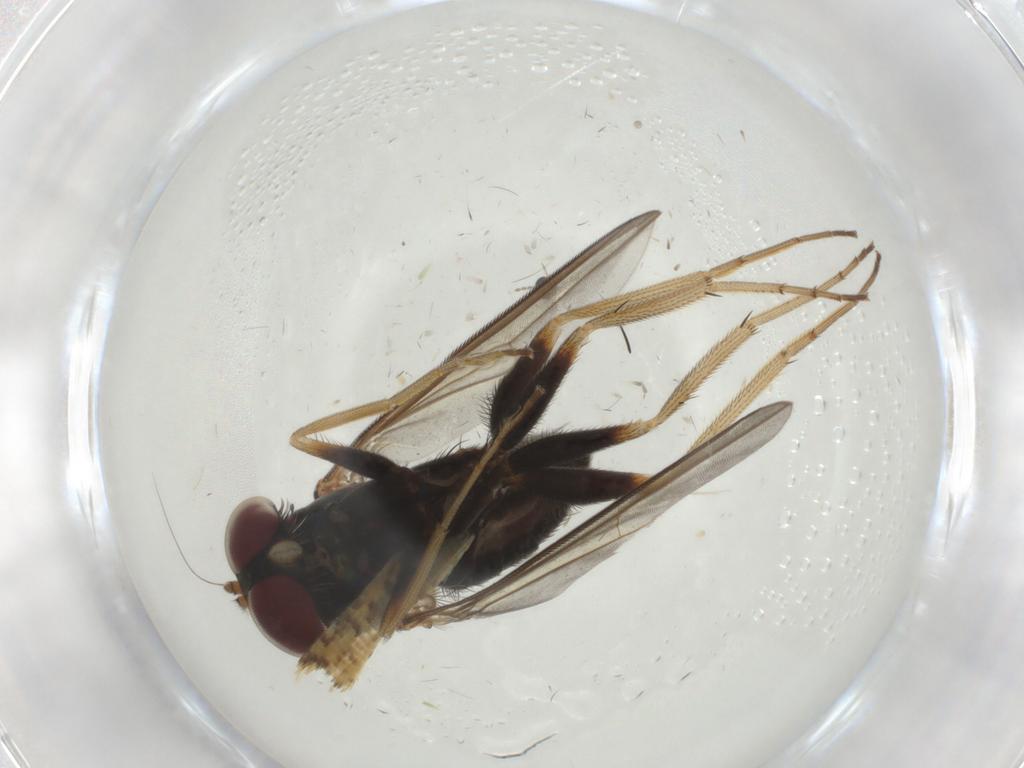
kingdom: Animalia
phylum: Arthropoda
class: Insecta
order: Diptera
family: Dolichopodidae
